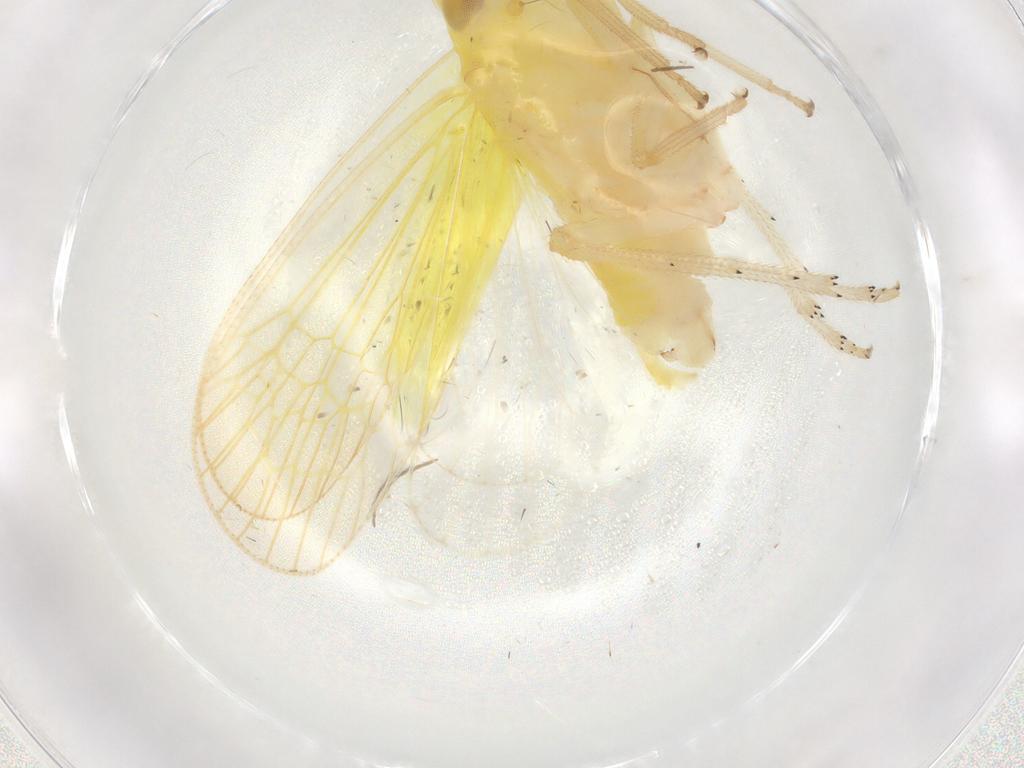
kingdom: Animalia
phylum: Arthropoda
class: Insecta
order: Hemiptera
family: Tropiduchidae
